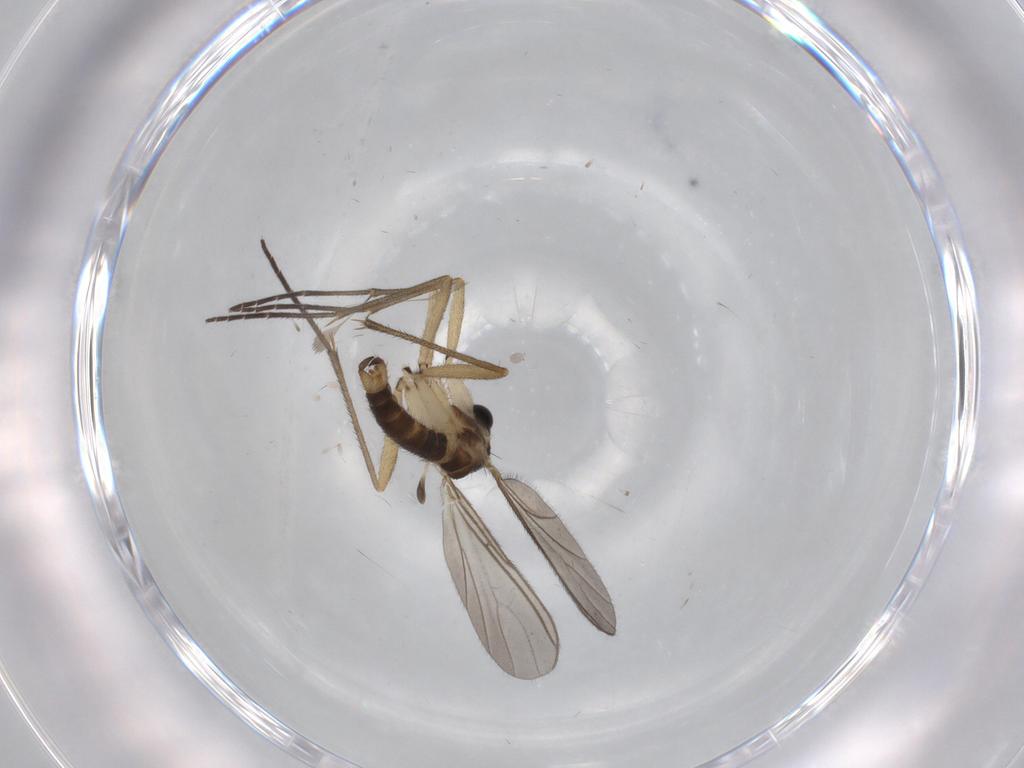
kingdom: Animalia
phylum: Arthropoda
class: Insecta
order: Diptera
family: Sciaridae
